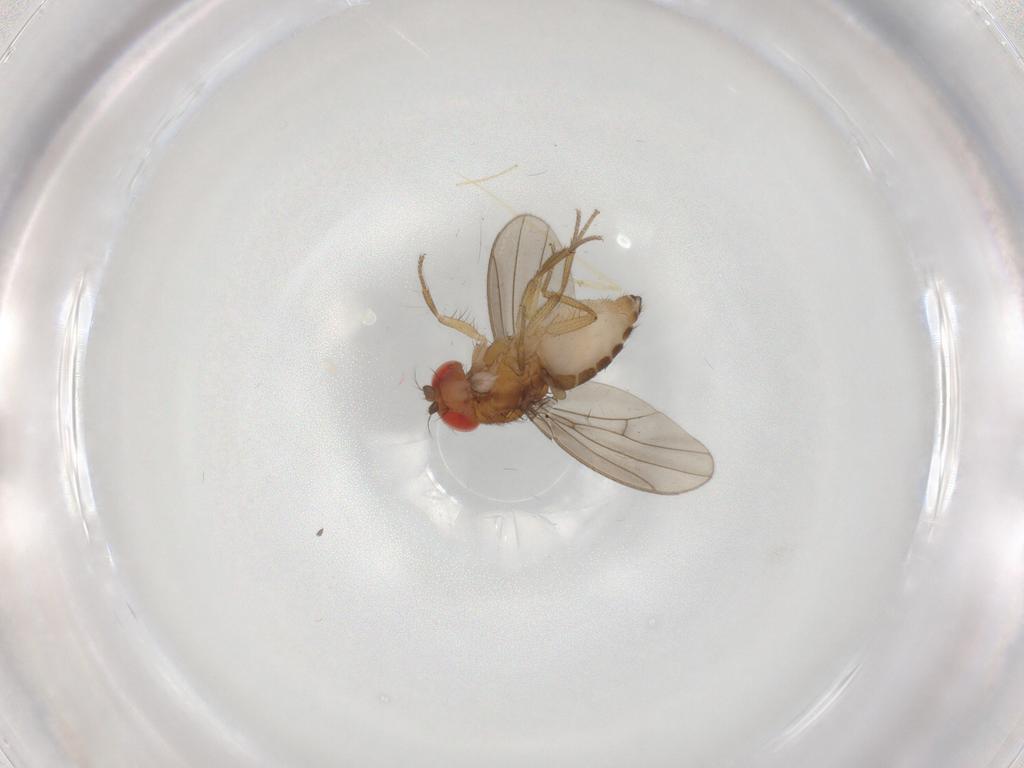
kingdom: Animalia
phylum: Arthropoda
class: Insecta
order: Diptera
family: Drosophilidae
